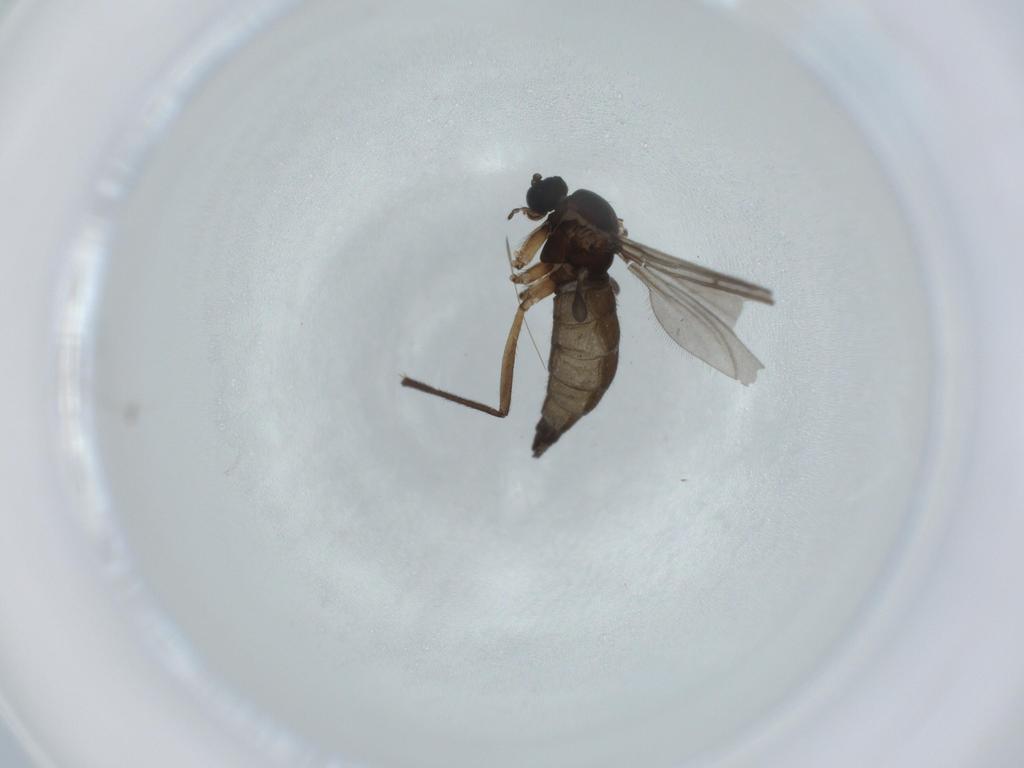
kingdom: Animalia
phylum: Arthropoda
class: Insecta
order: Diptera
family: Sciaridae
